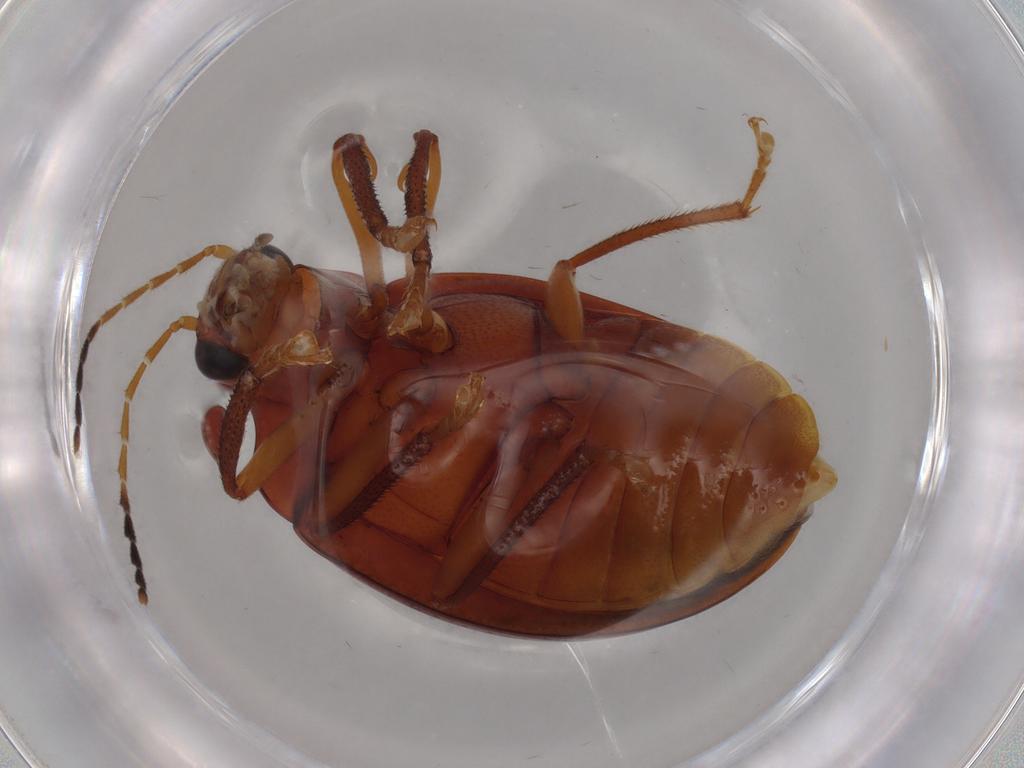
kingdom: Animalia
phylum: Arthropoda
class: Insecta
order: Coleoptera
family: Ptilodactylidae
